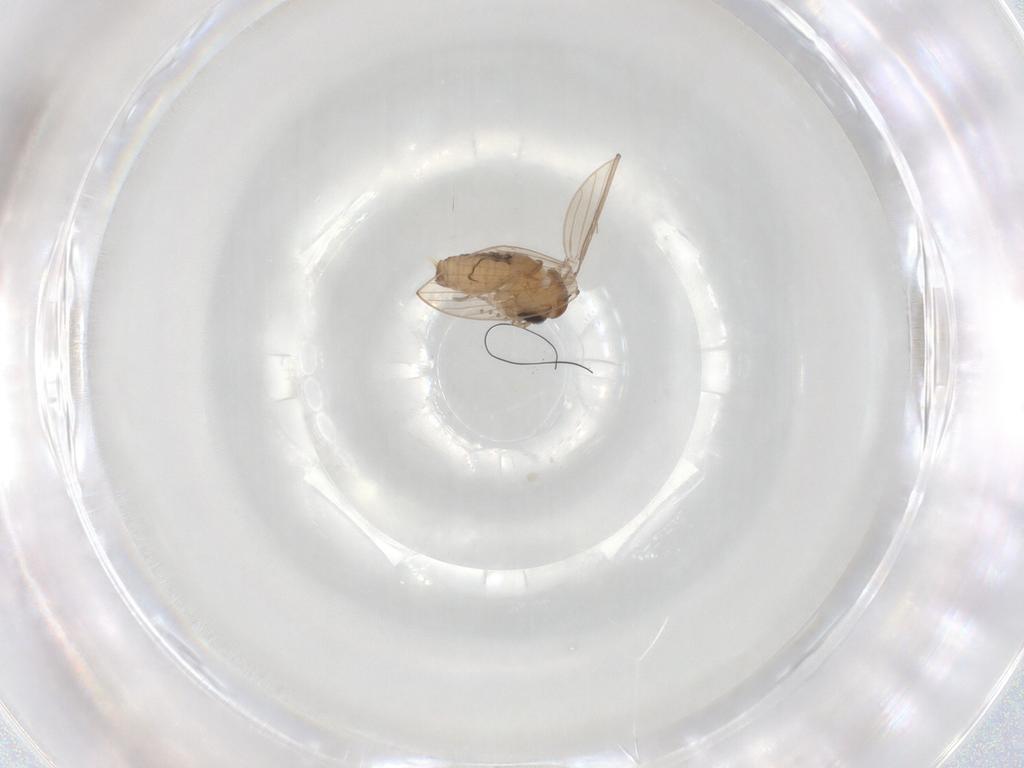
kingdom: Animalia
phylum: Arthropoda
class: Insecta
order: Diptera
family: Psychodidae
